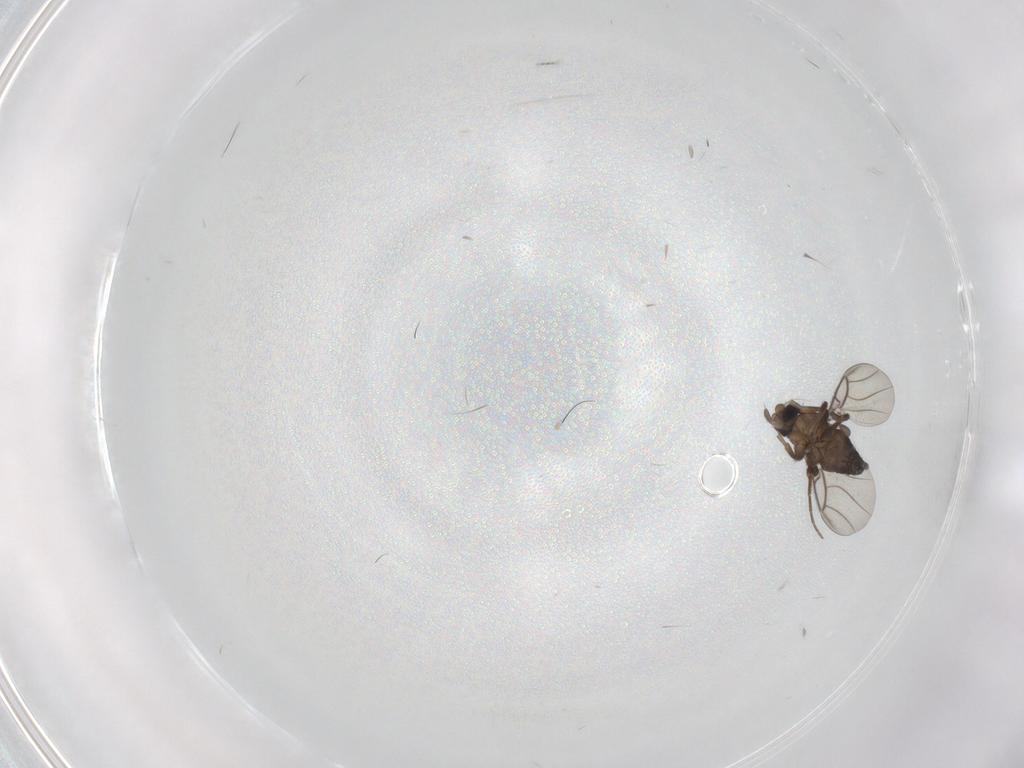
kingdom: Animalia
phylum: Arthropoda
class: Insecta
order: Diptera
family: Phoridae
